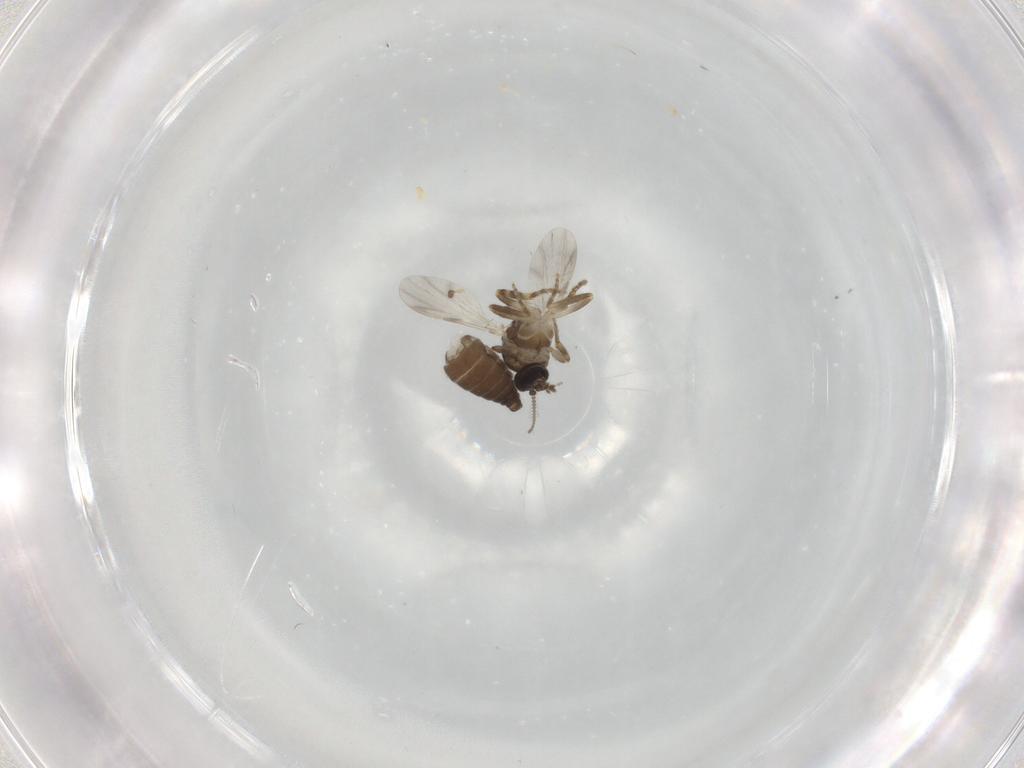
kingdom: Animalia
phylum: Arthropoda
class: Insecta
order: Diptera
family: Ceratopogonidae
